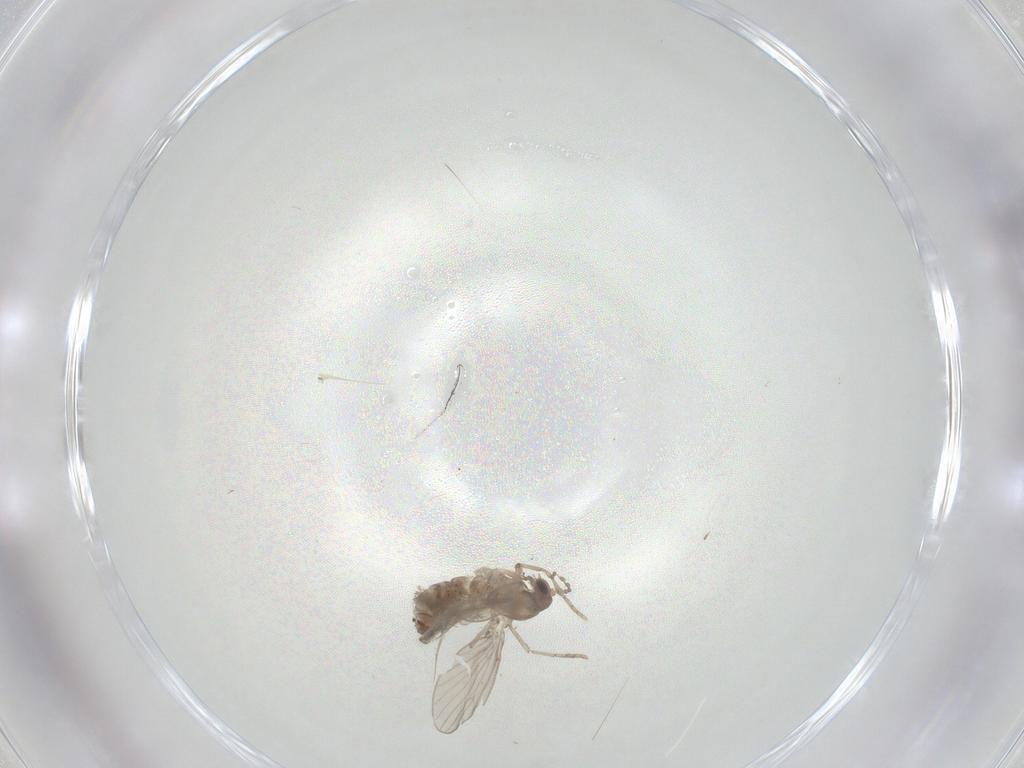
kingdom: Animalia
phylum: Arthropoda
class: Insecta
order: Diptera
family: Psychodidae
